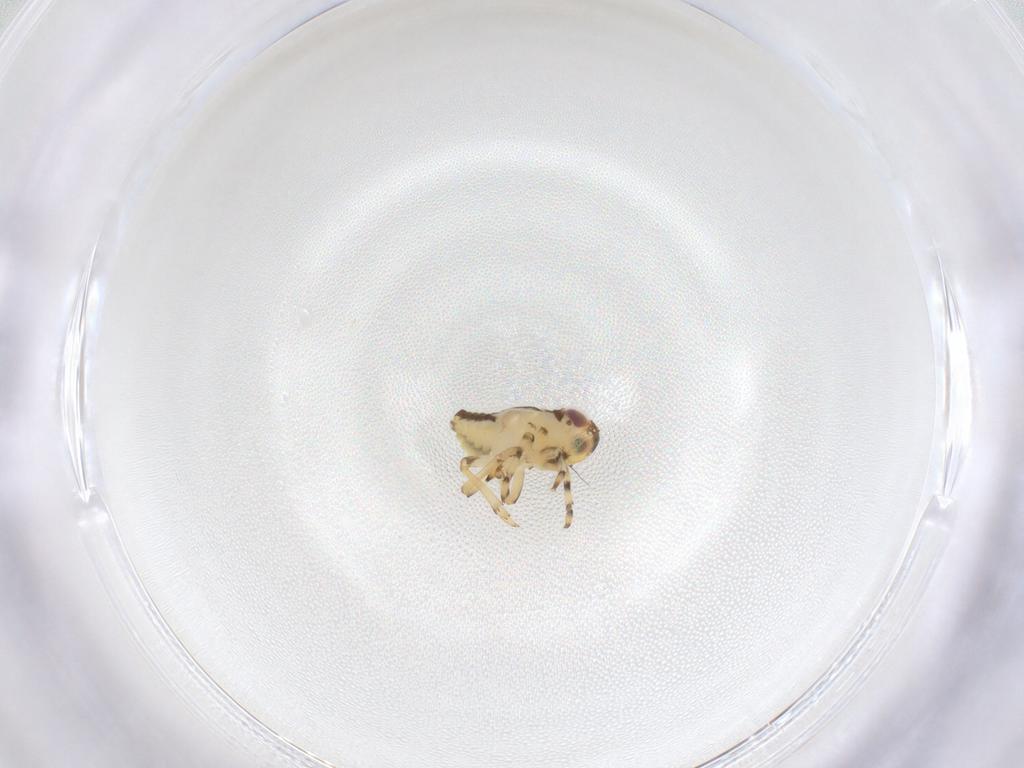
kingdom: Animalia
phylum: Arthropoda
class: Insecta
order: Hemiptera
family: Issidae
